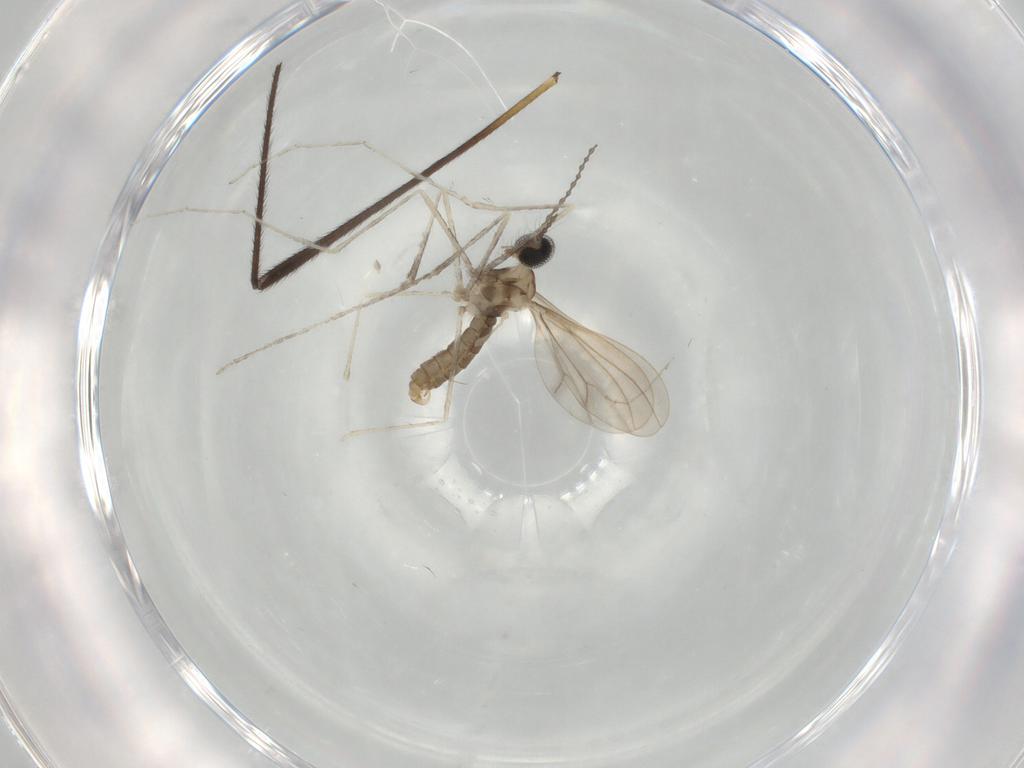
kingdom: Animalia
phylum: Arthropoda
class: Insecta
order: Diptera
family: Cecidomyiidae
